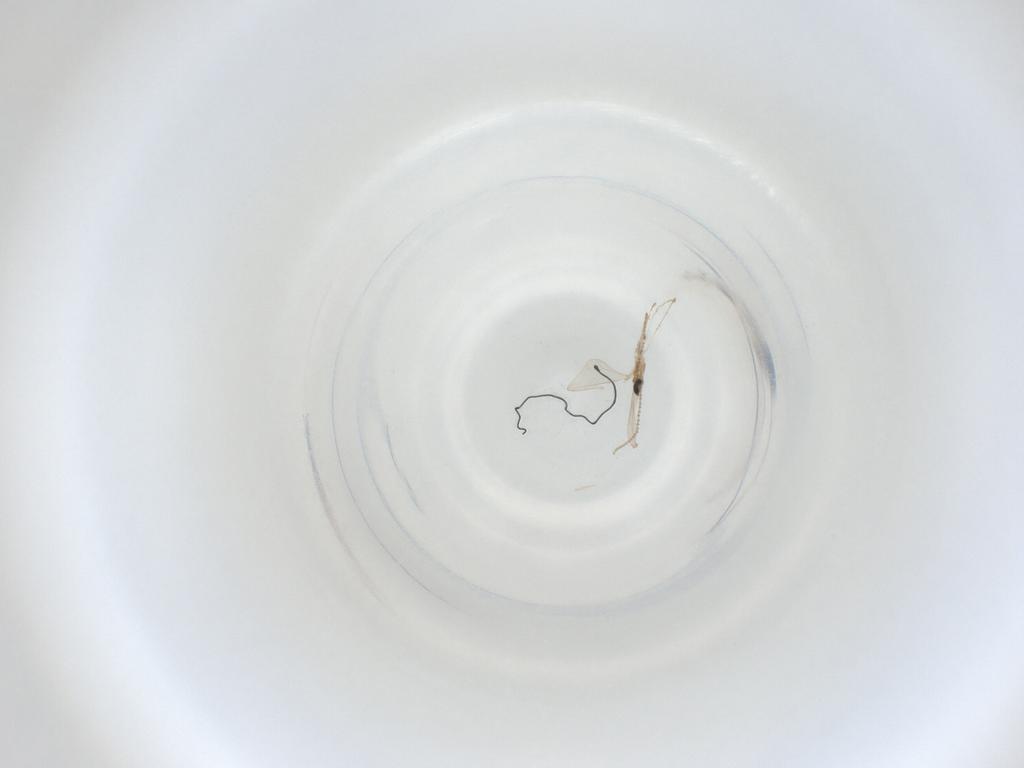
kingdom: Animalia
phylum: Arthropoda
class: Insecta
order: Diptera
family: Cecidomyiidae
